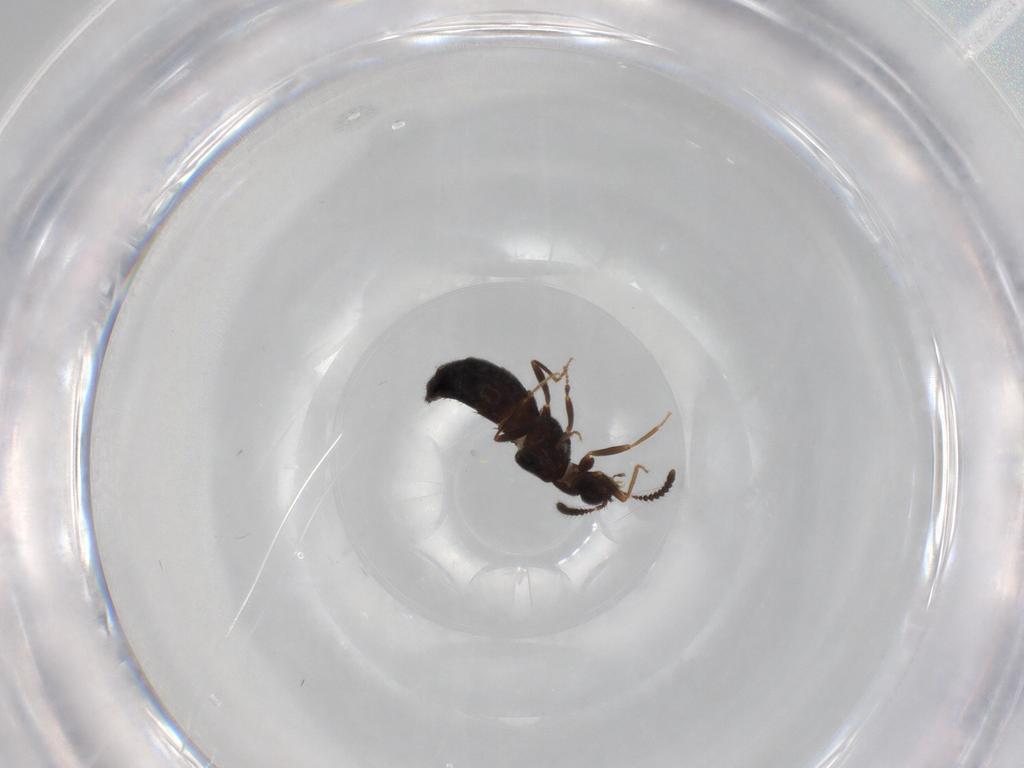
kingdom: Animalia
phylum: Arthropoda
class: Insecta
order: Coleoptera
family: Staphylinidae
